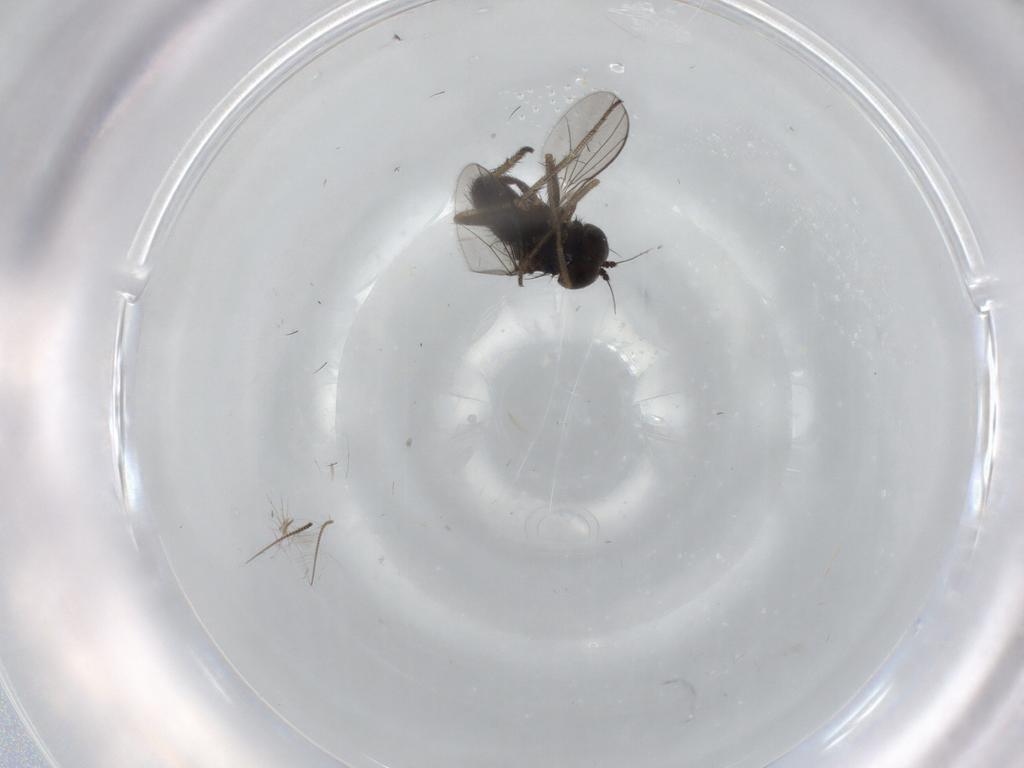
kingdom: Animalia
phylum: Arthropoda
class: Insecta
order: Diptera
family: Chironomidae
